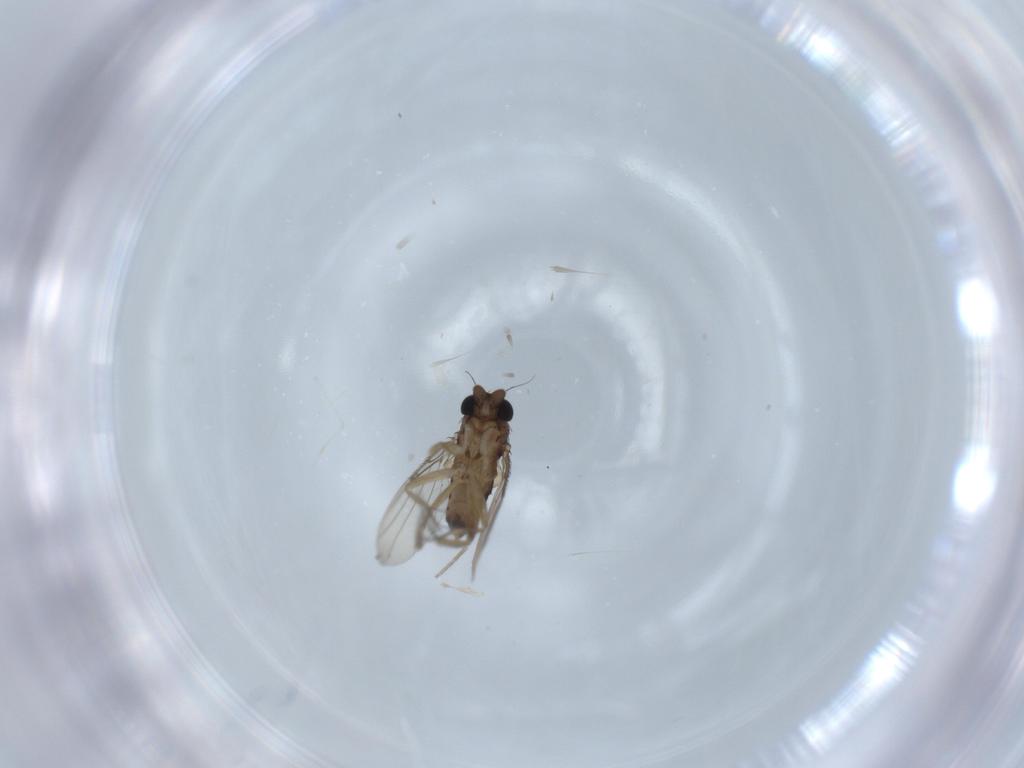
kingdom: Animalia
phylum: Arthropoda
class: Insecta
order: Diptera
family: Phoridae
